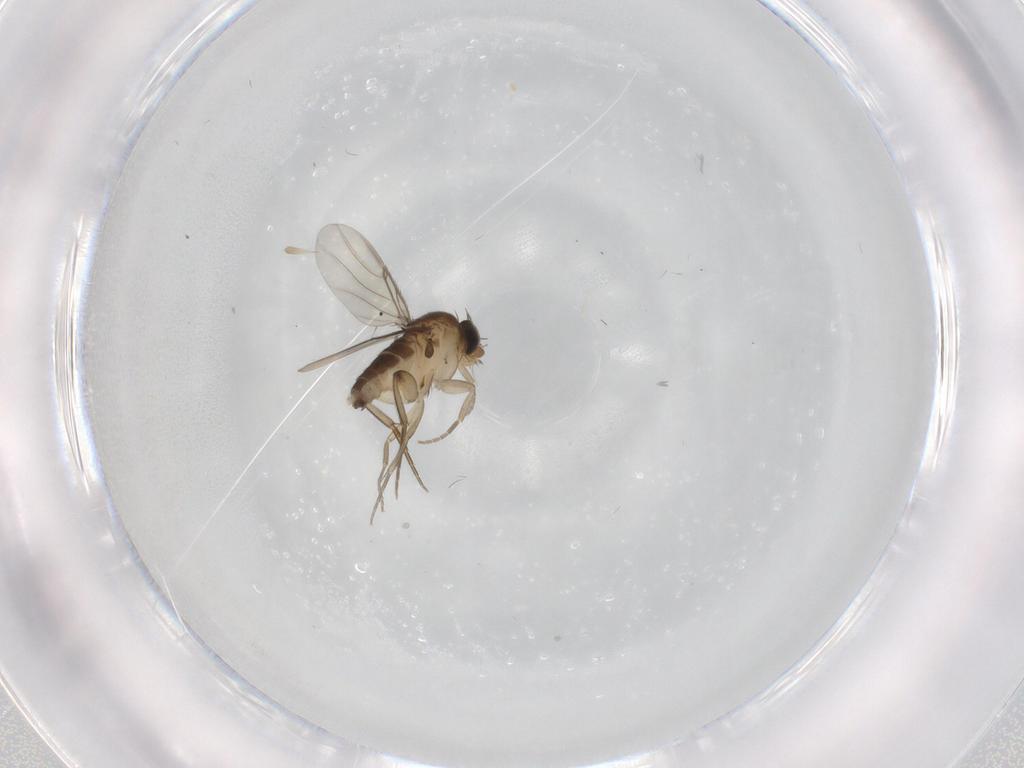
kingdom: Animalia
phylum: Arthropoda
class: Insecta
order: Diptera
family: Phoridae
